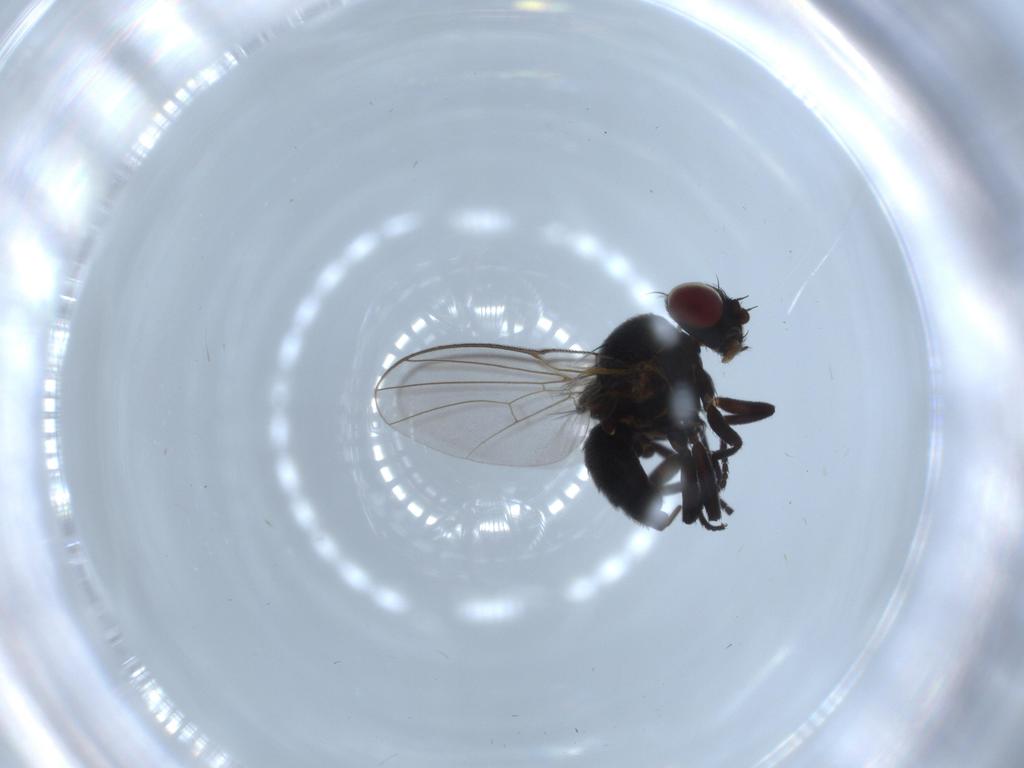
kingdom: Animalia
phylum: Arthropoda
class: Insecta
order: Diptera
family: Agromyzidae
